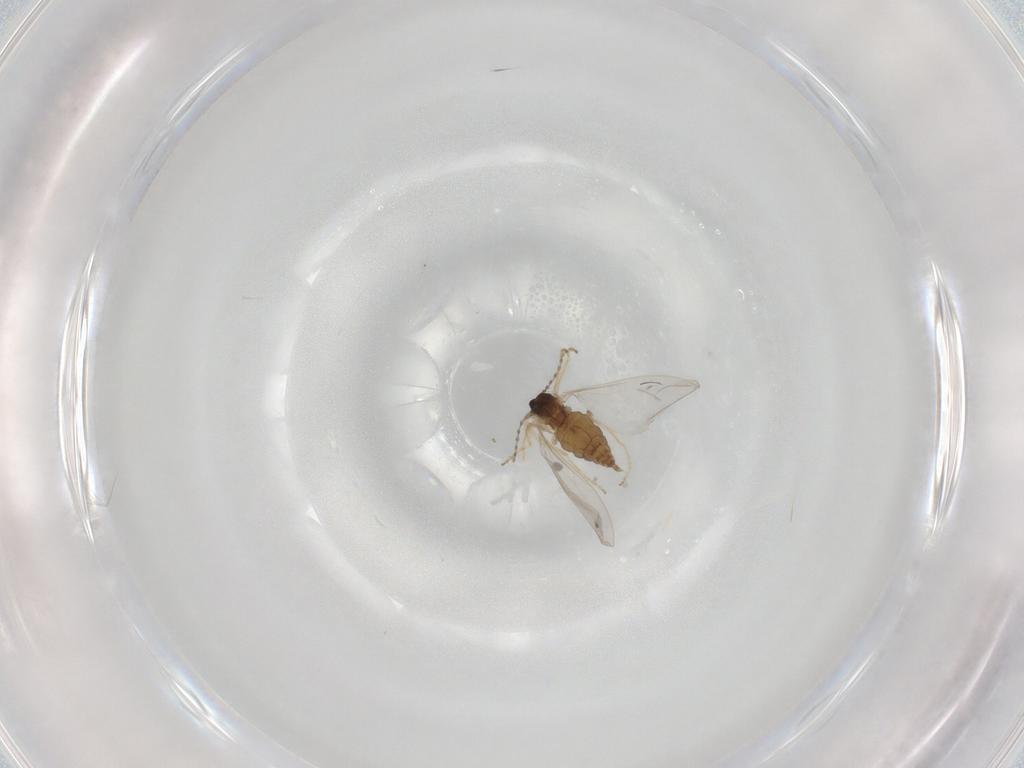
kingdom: Animalia
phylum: Arthropoda
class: Insecta
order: Diptera
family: Cecidomyiidae
